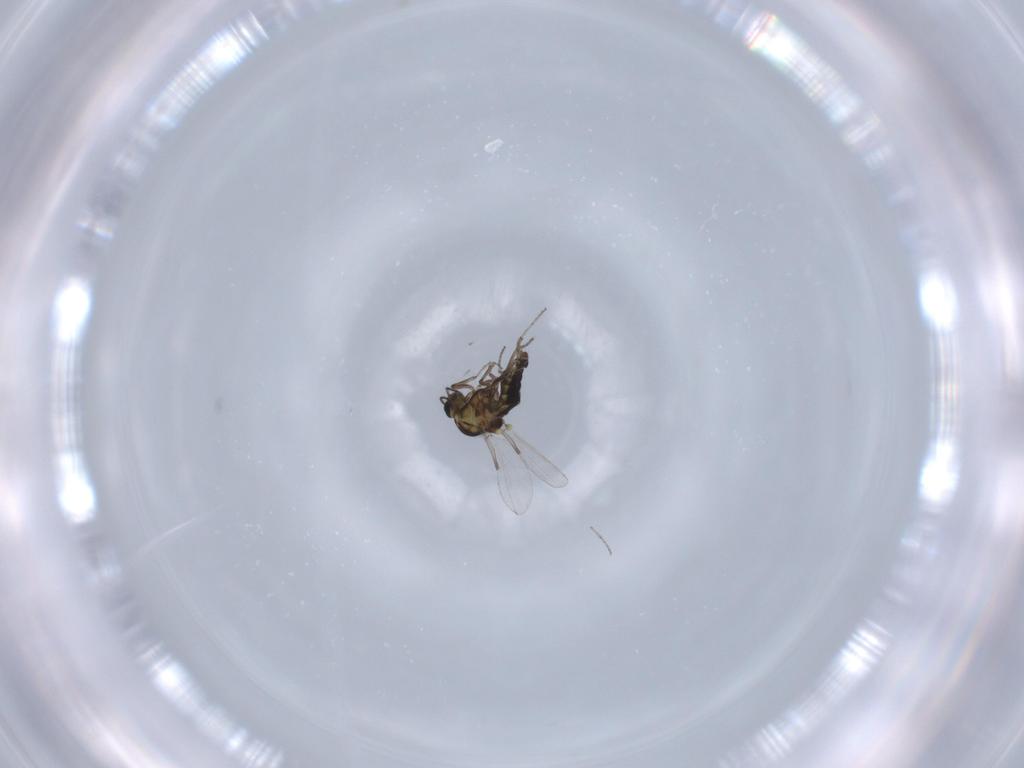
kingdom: Animalia
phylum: Arthropoda
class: Insecta
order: Diptera
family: Ceratopogonidae
